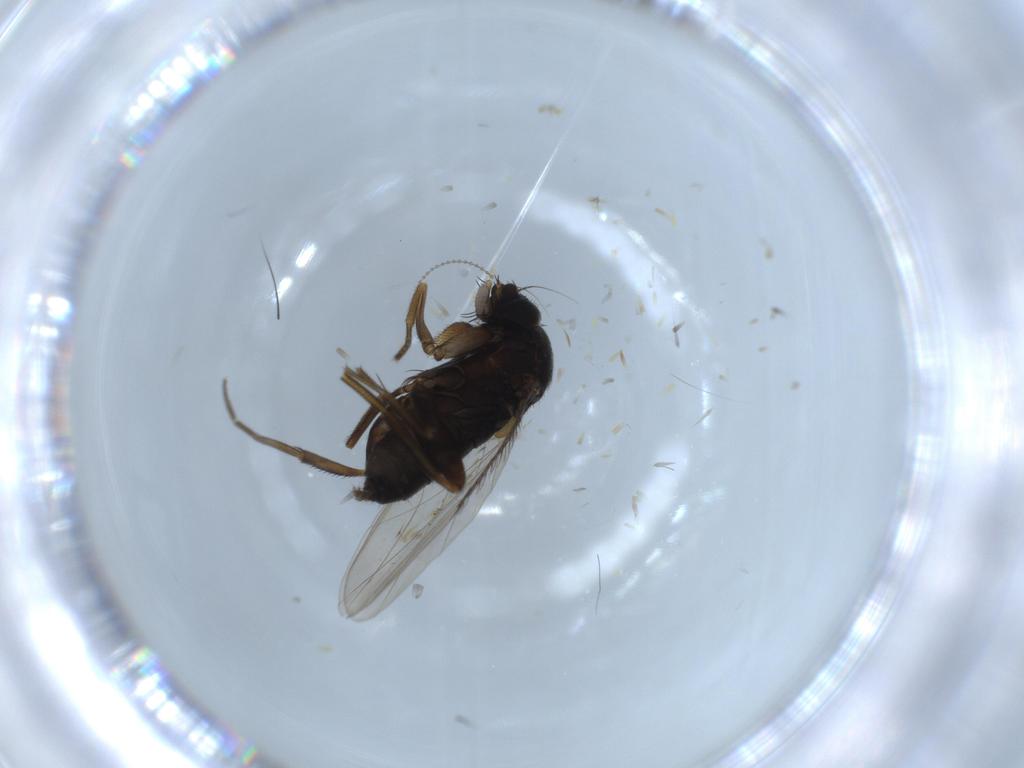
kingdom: Animalia
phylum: Arthropoda
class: Insecta
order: Diptera
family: Phoridae
